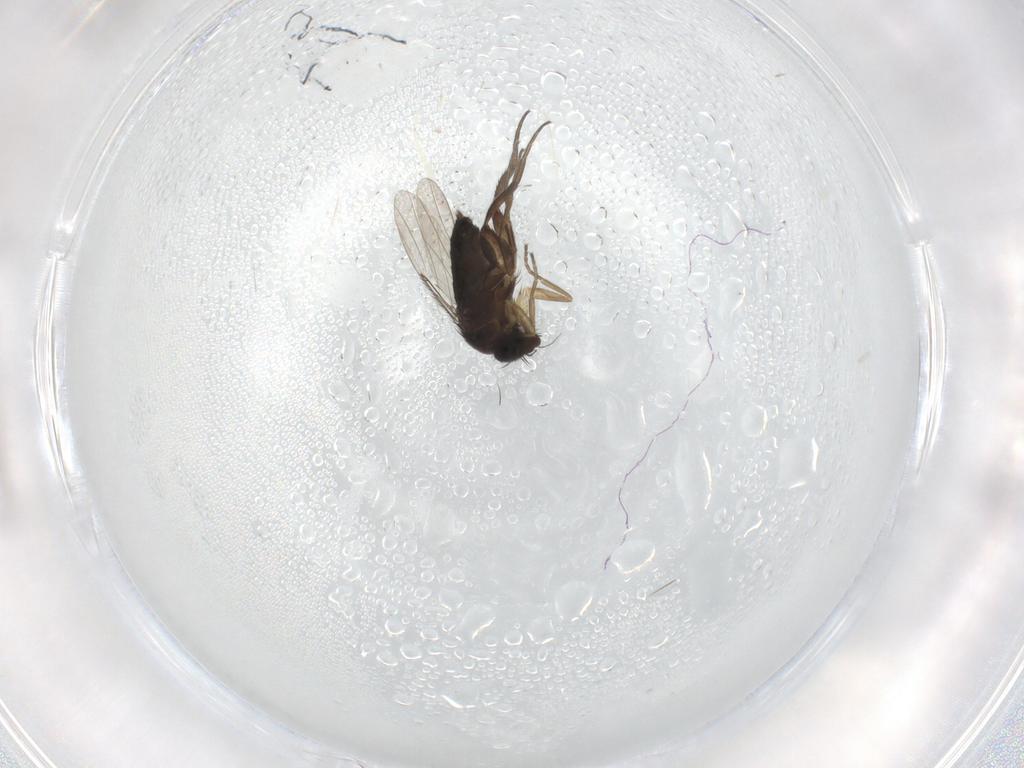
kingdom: Animalia
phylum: Arthropoda
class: Insecta
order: Diptera
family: Phoridae
